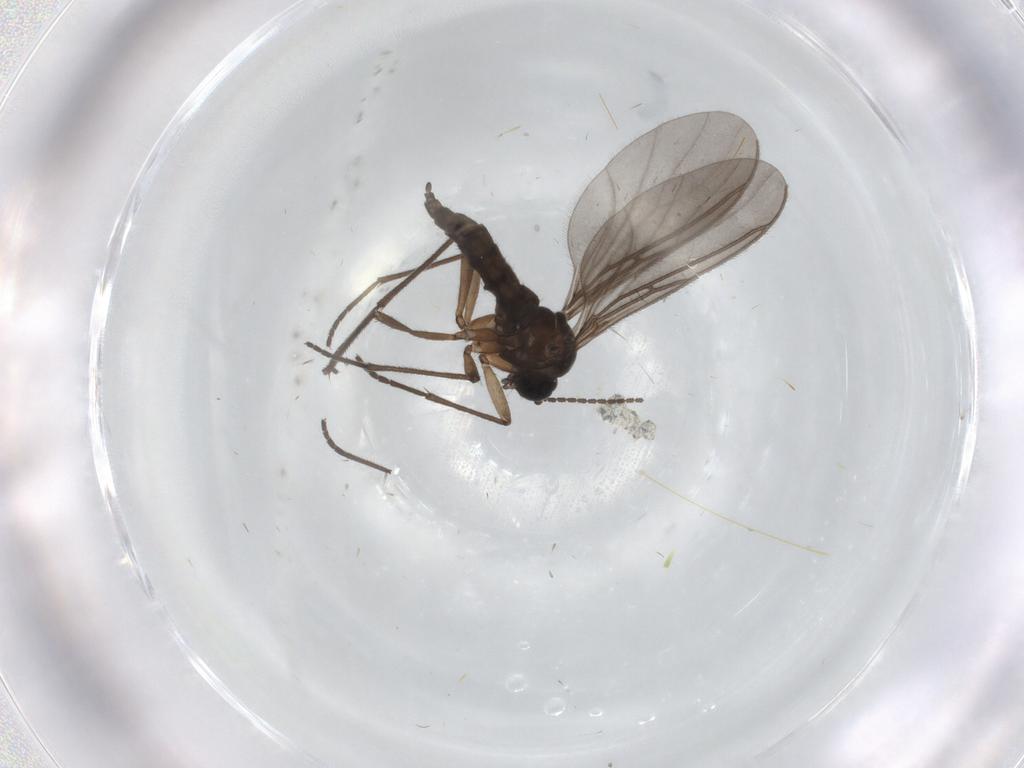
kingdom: Animalia
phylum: Arthropoda
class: Insecta
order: Diptera
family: Sciaridae
